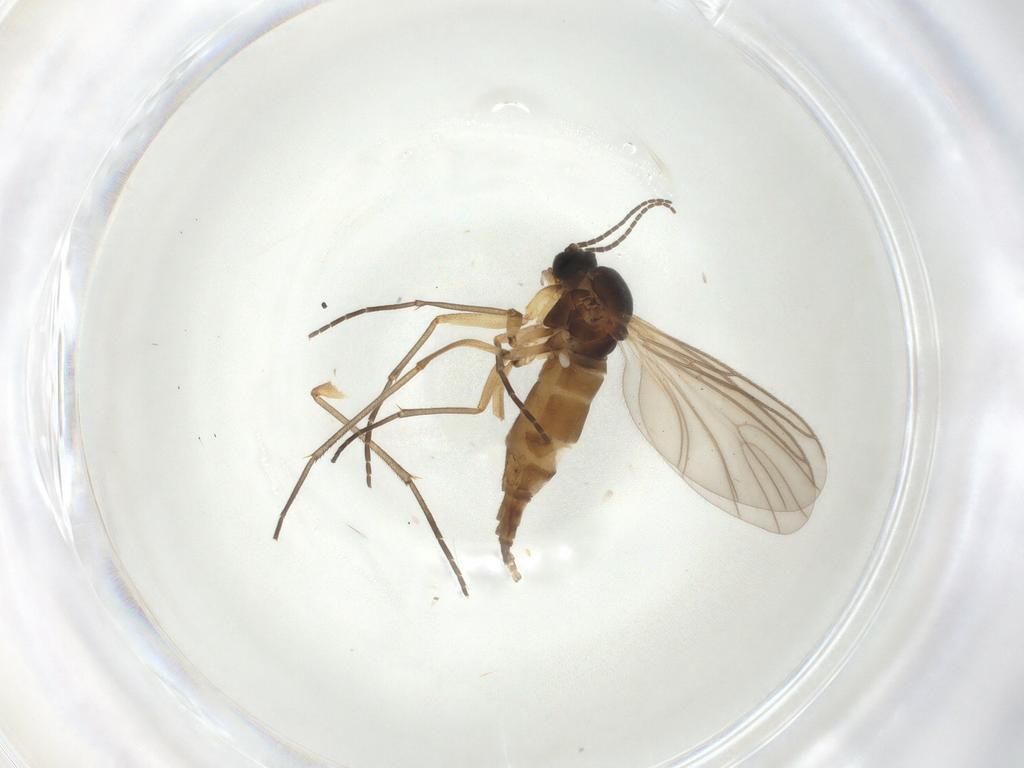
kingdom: Animalia
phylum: Arthropoda
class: Insecta
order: Diptera
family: Sciaridae
